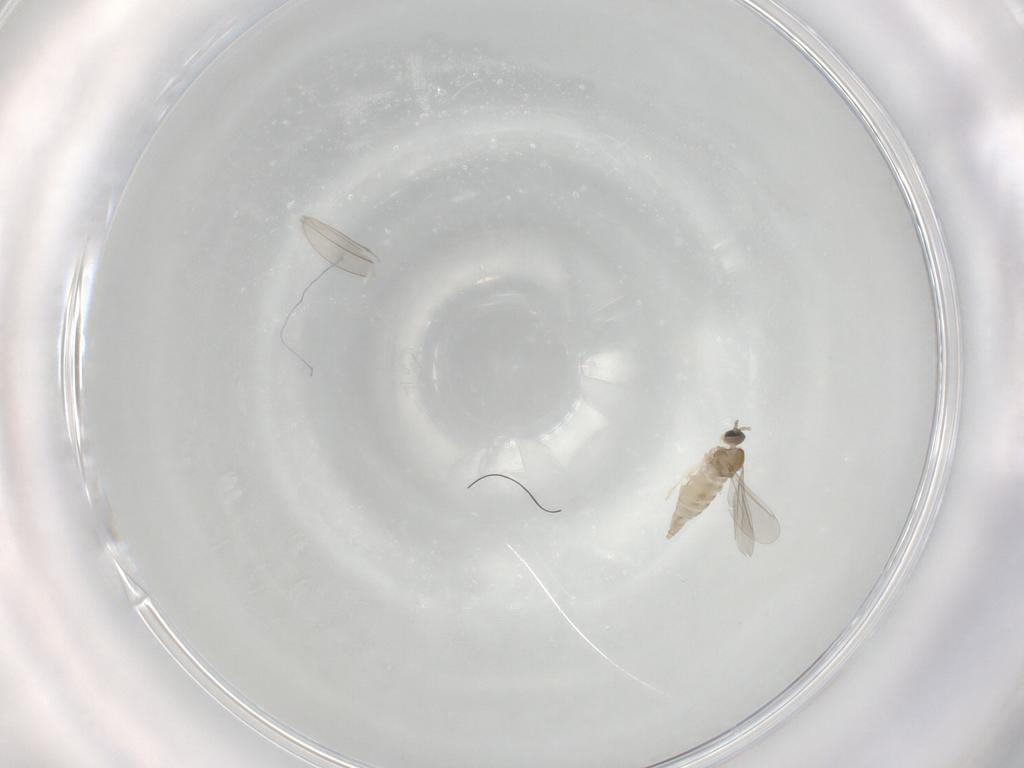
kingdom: Animalia
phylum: Arthropoda
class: Insecta
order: Diptera
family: Cecidomyiidae
